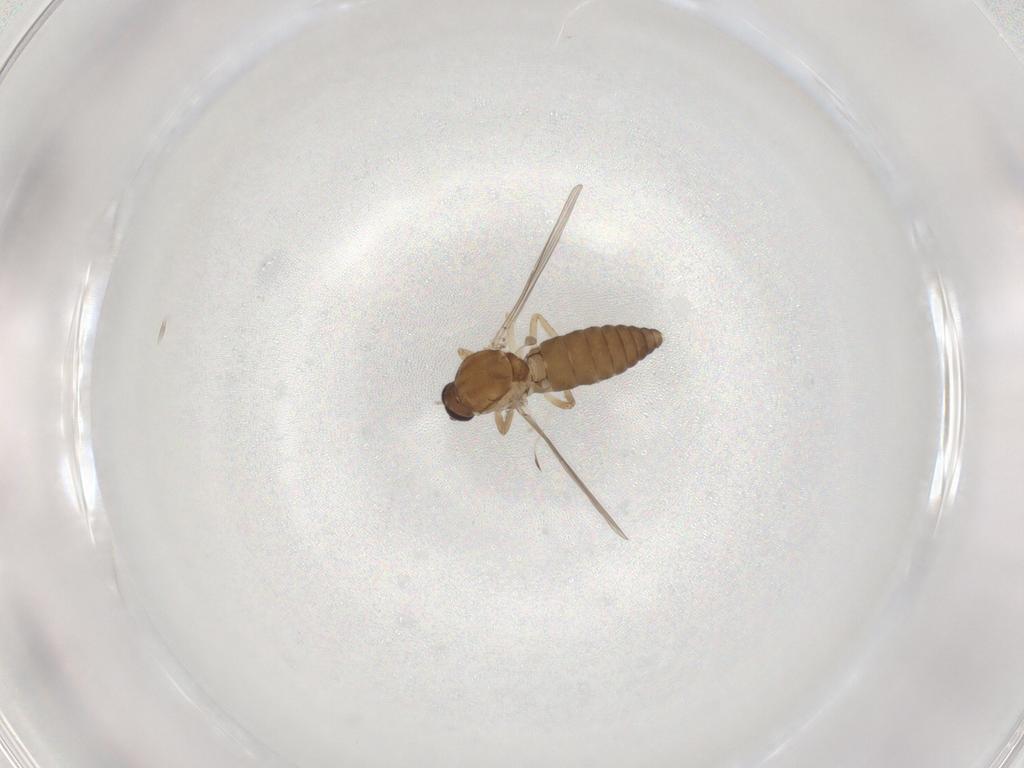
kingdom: Animalia
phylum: Arthropoda
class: Insecta
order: Diptera
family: Ceratopogonidae
